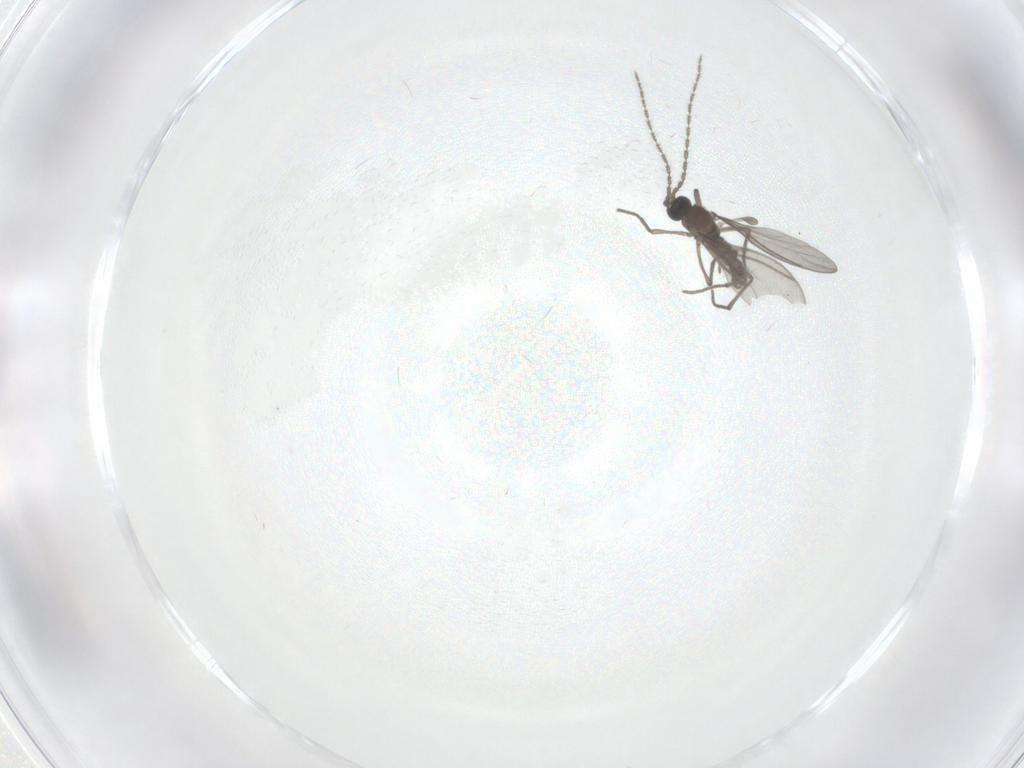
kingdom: Animalia
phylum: Arthropoda
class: Insecta
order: Diptera
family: Sciaridae
